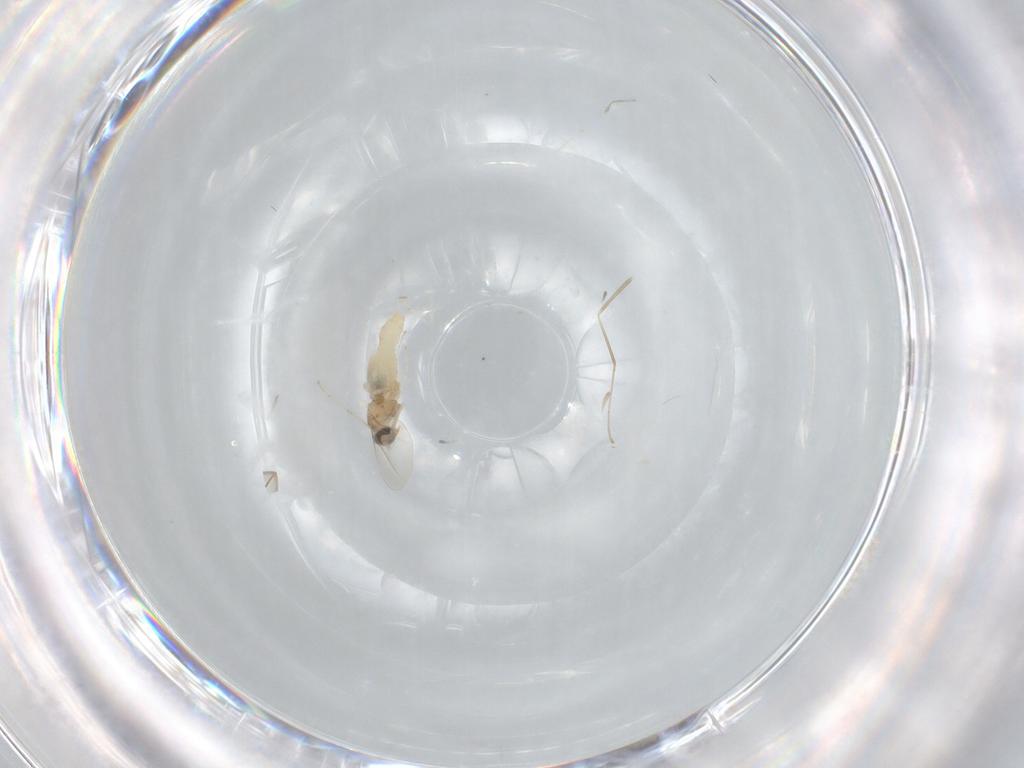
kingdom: Animalia
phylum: Arthropoda
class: Insecta
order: Diptera
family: Cecidomyiidae
